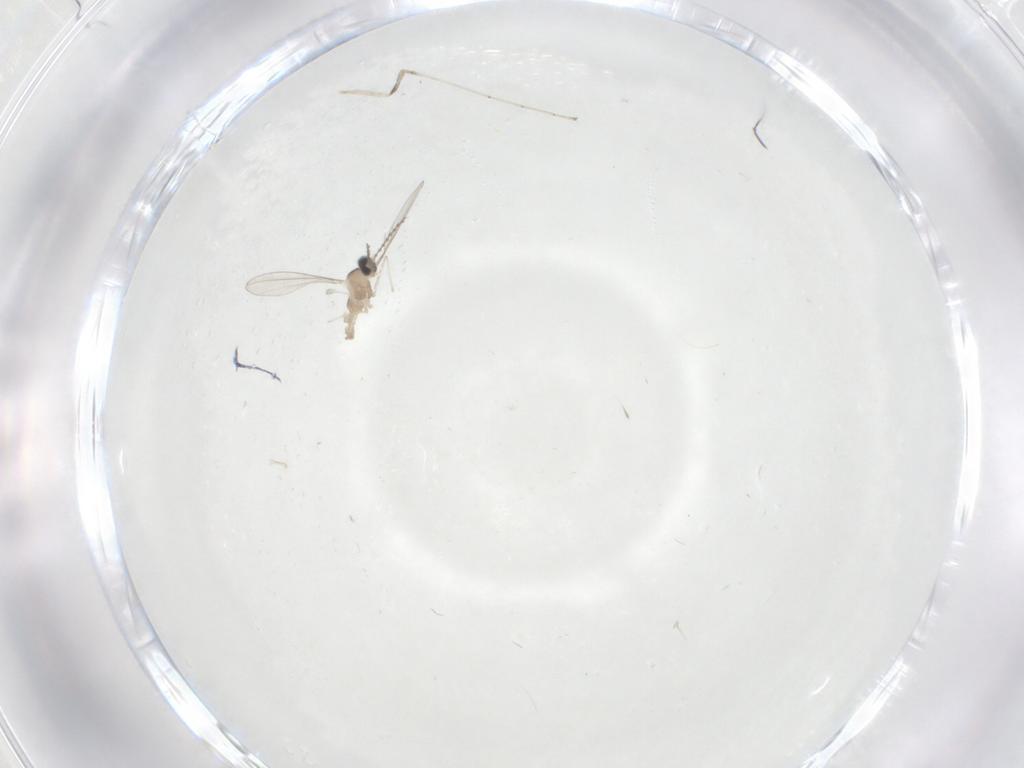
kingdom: Animalia
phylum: Arthropoda
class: Insecta
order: Diptera
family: Cecidomyiidae
